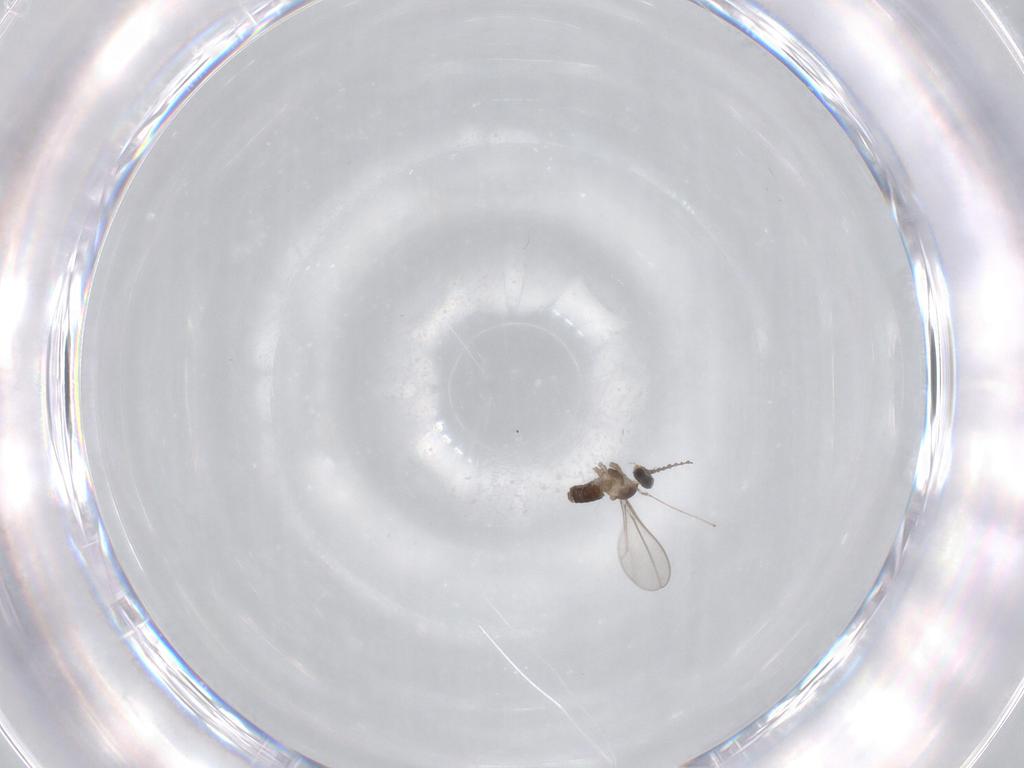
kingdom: Animalia
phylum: Arthropoda
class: Insecta
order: Diptera
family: Cecidomyiidae
